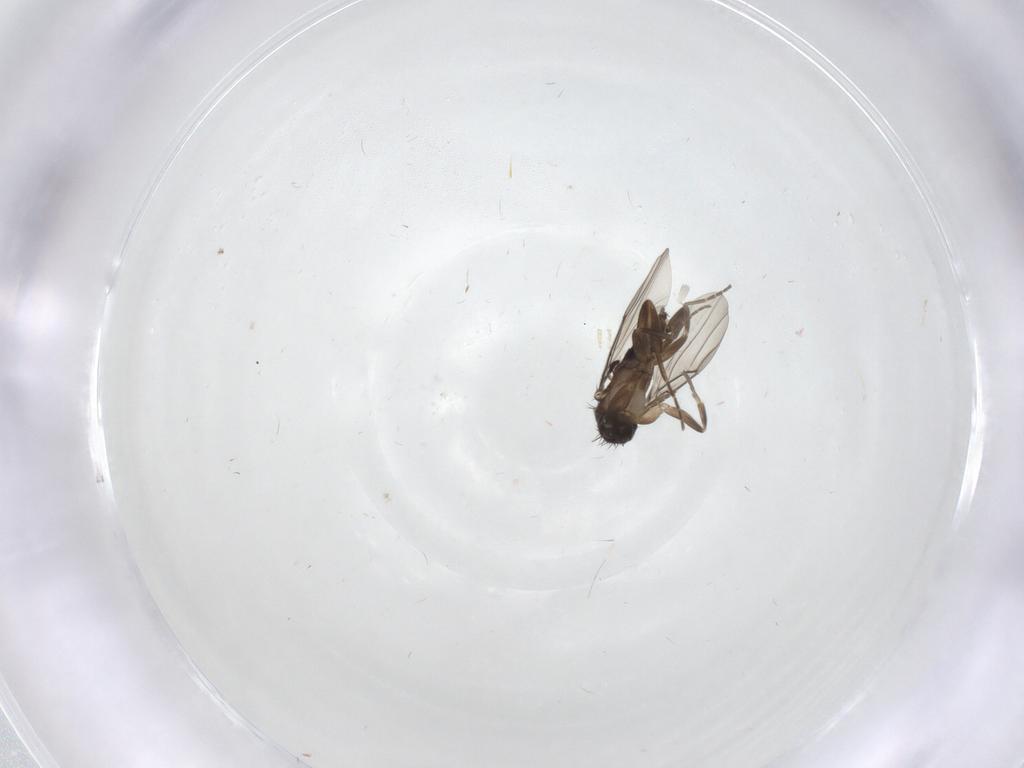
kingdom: Animalia
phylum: Arthropoda
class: Insecta
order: Diptera
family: Phoridae
